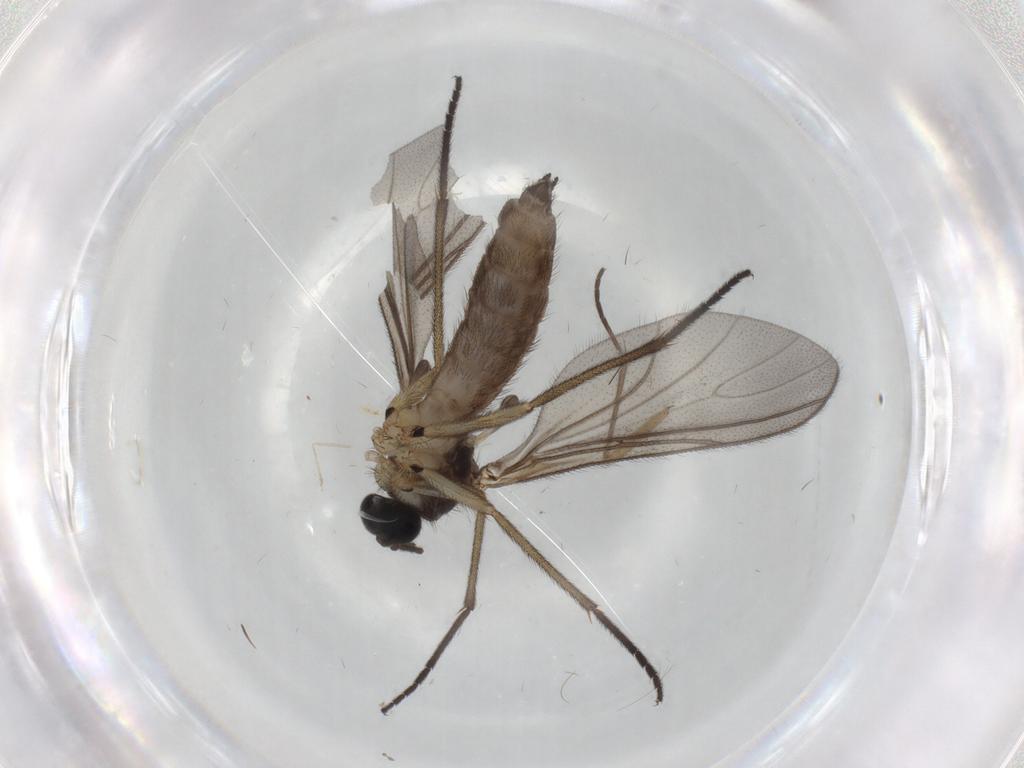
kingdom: Animalia
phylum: Arthropoda
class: Insecta
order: Diptera
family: Sciaridae
